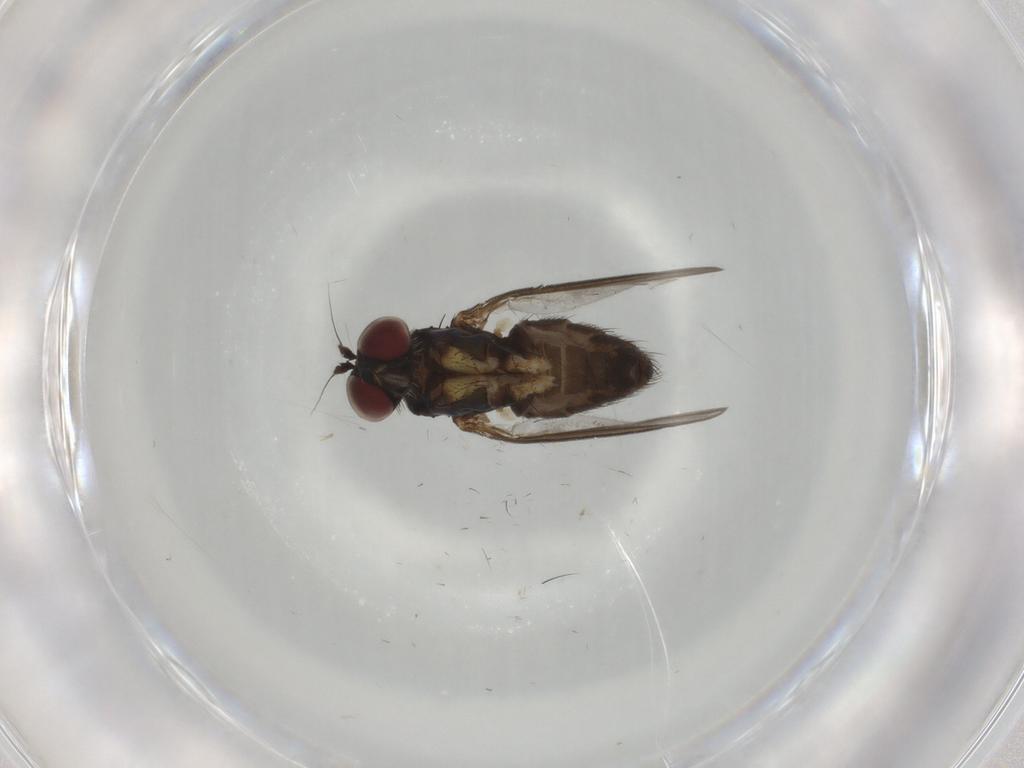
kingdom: Animalia
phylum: Arthropoda
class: Insecta
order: Diptera
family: Dolichopodidae
